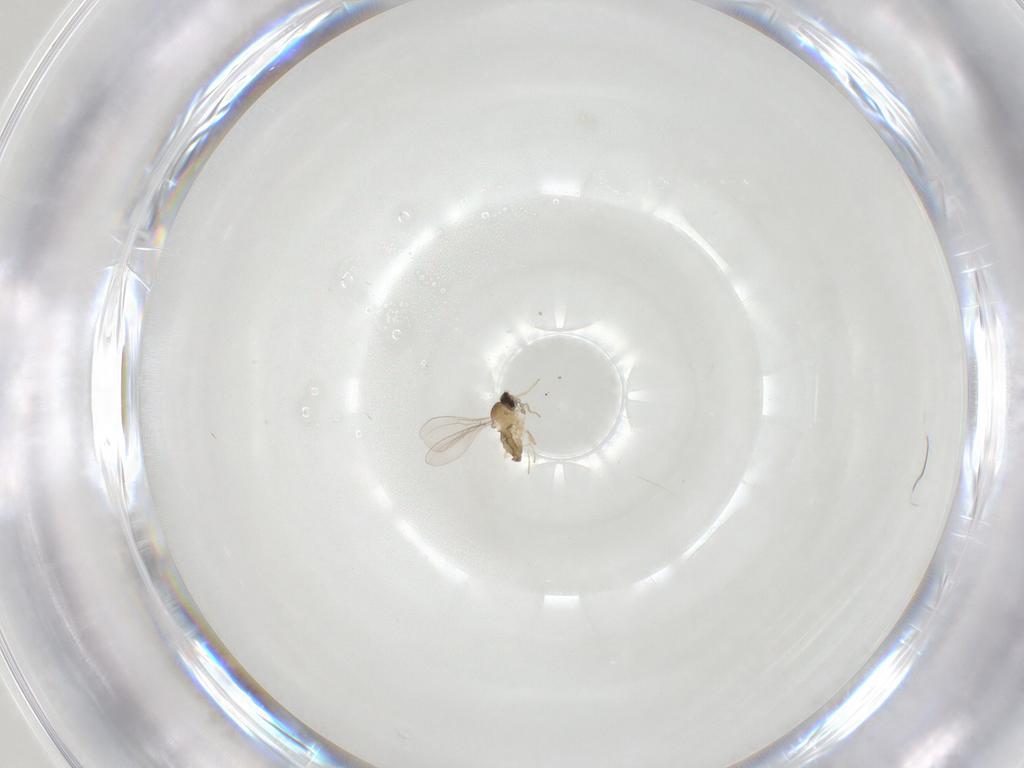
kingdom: Animalia
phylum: Arthropoda
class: Insecta
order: Diptera
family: Cecidomyiidae
